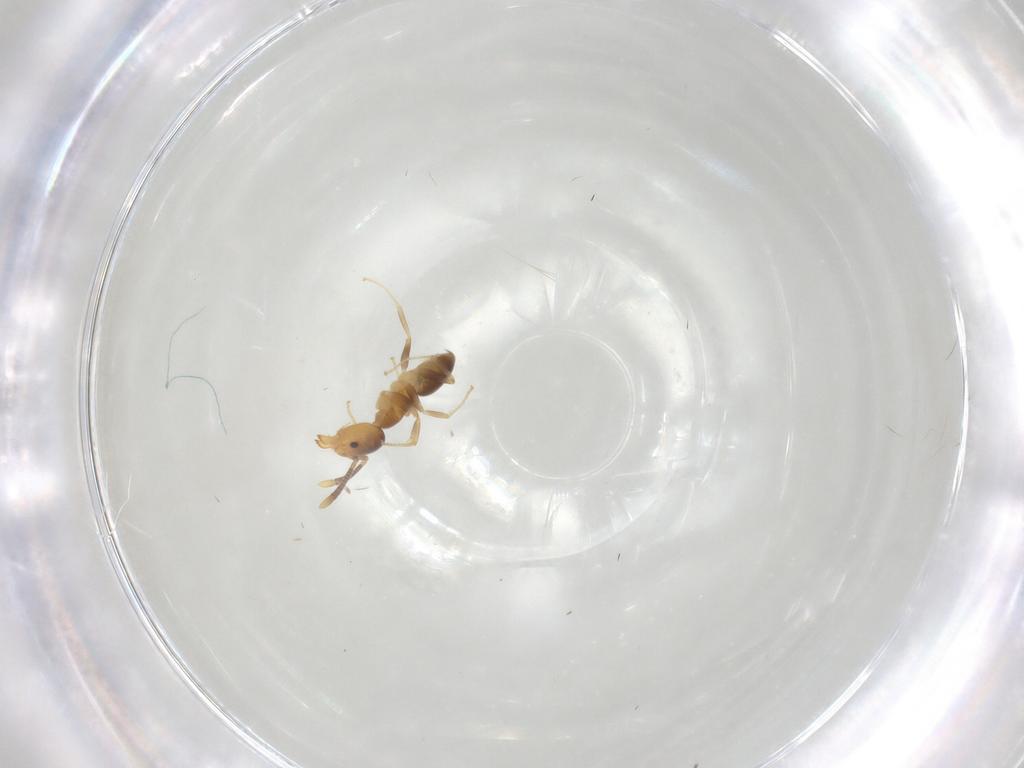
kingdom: Animalia
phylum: Arthropoda
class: Insecta
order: Hymenoptera
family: Formicidae
